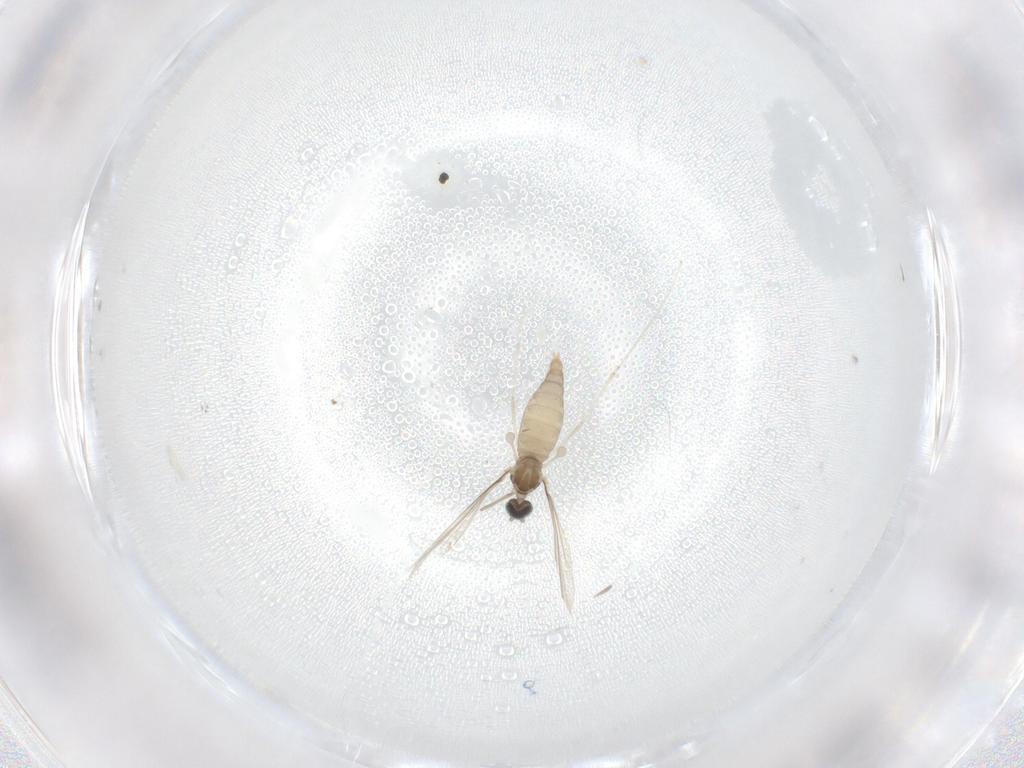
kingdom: Animalia
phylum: Arthropoda
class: Insecta
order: Diptera
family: Cecidomyiidae
